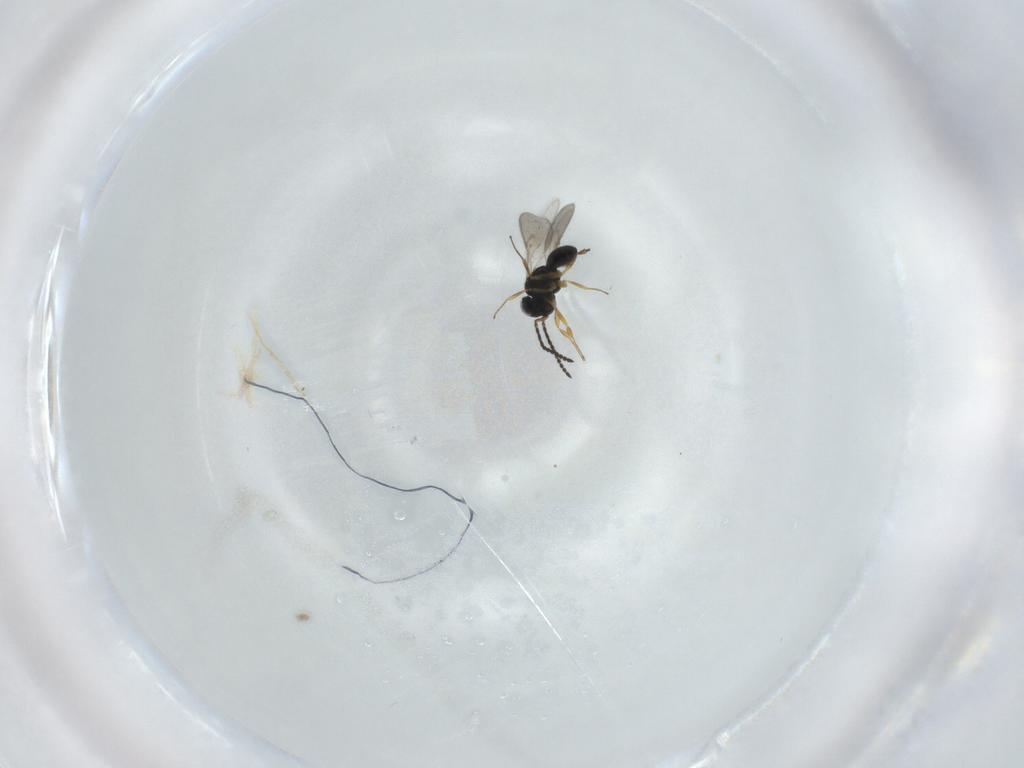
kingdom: Animalia
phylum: Arthropoda
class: Insecta
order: Hymenoptera
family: Scelionidae
